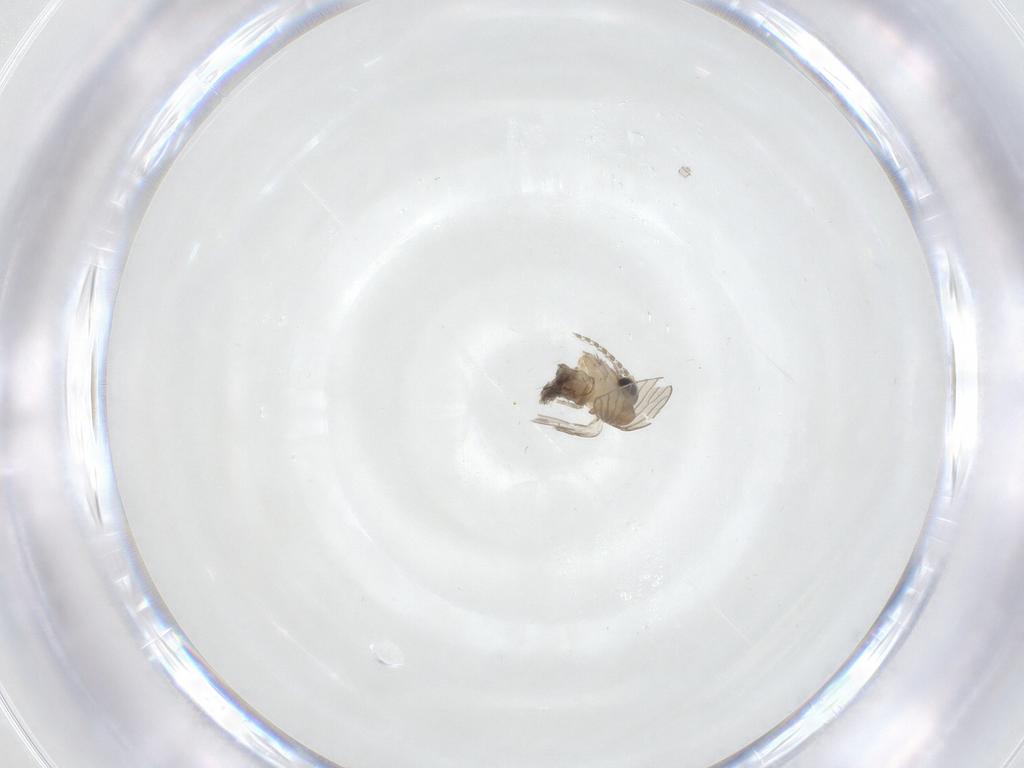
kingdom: Animalia
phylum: Arthropoda
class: Insecta
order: Diptera
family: Cecidomyiidae
